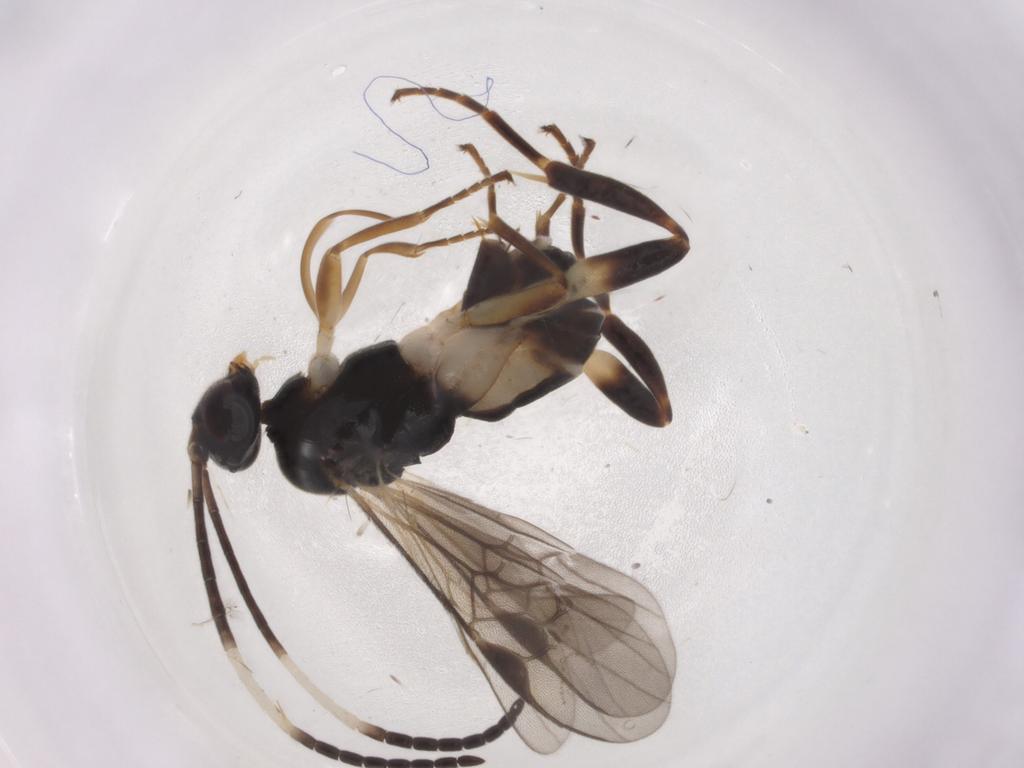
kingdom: Animalia
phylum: Arthropoda
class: Insecta
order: Hymenoptera
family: Braconidae
